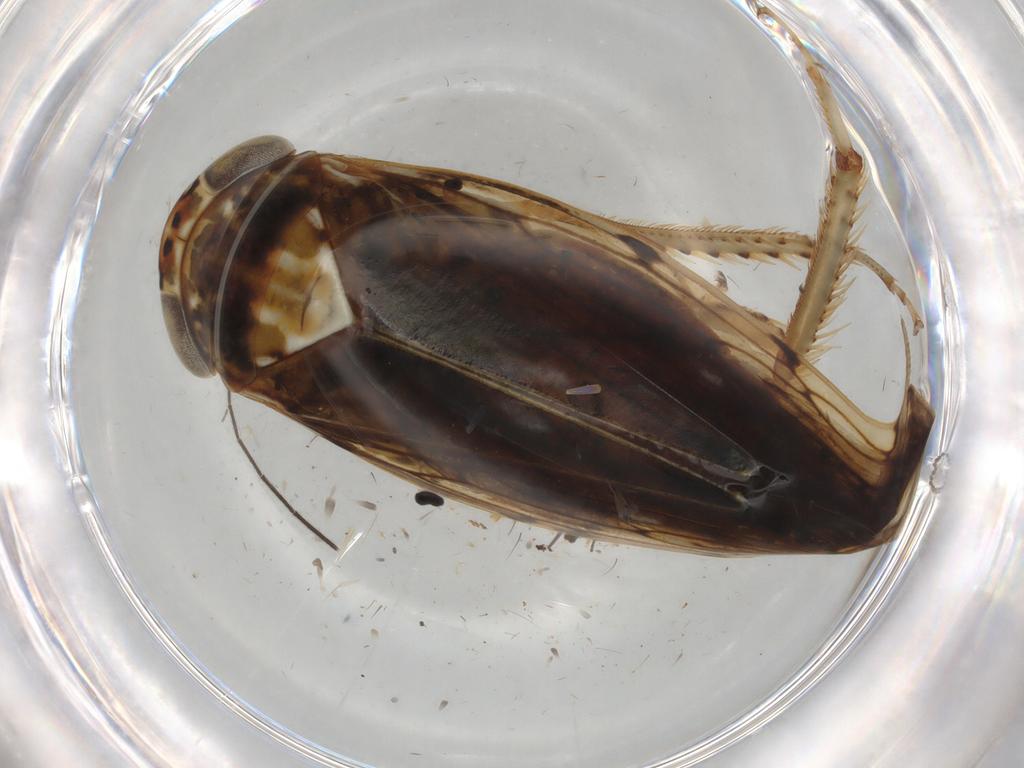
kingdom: Animalia
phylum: Arthropoda
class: Insecta
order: Hemiptera
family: Cicadellidae
